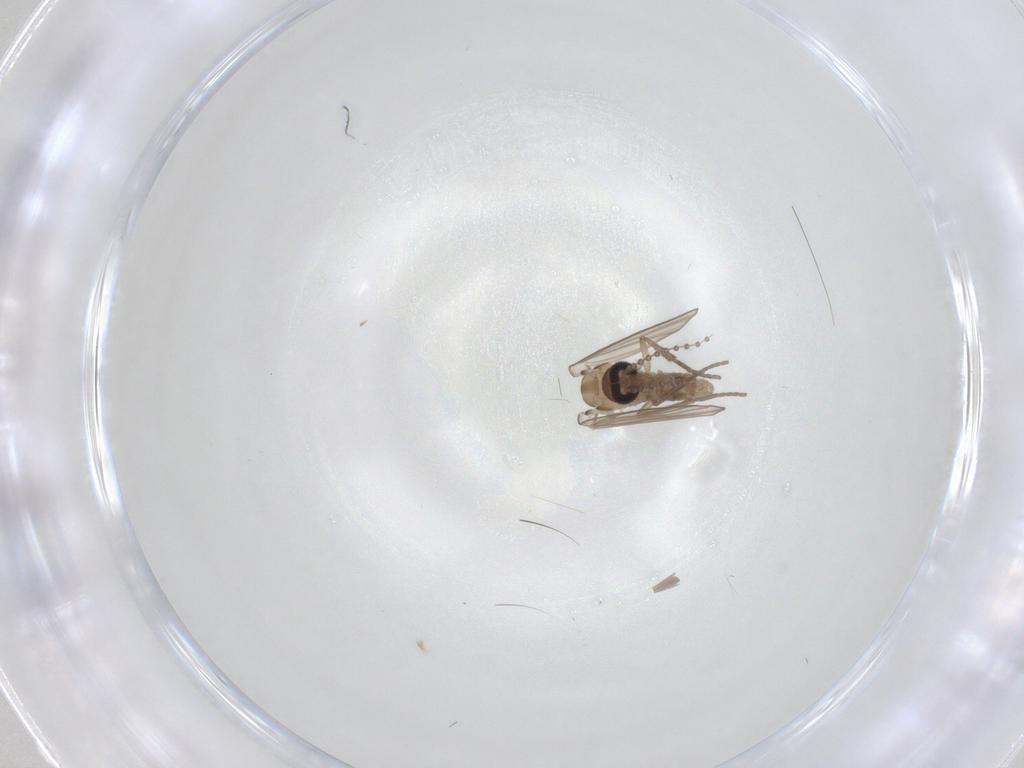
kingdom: Animalia
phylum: Arthropoda
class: Insecta
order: Diptera
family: Psychodidae
